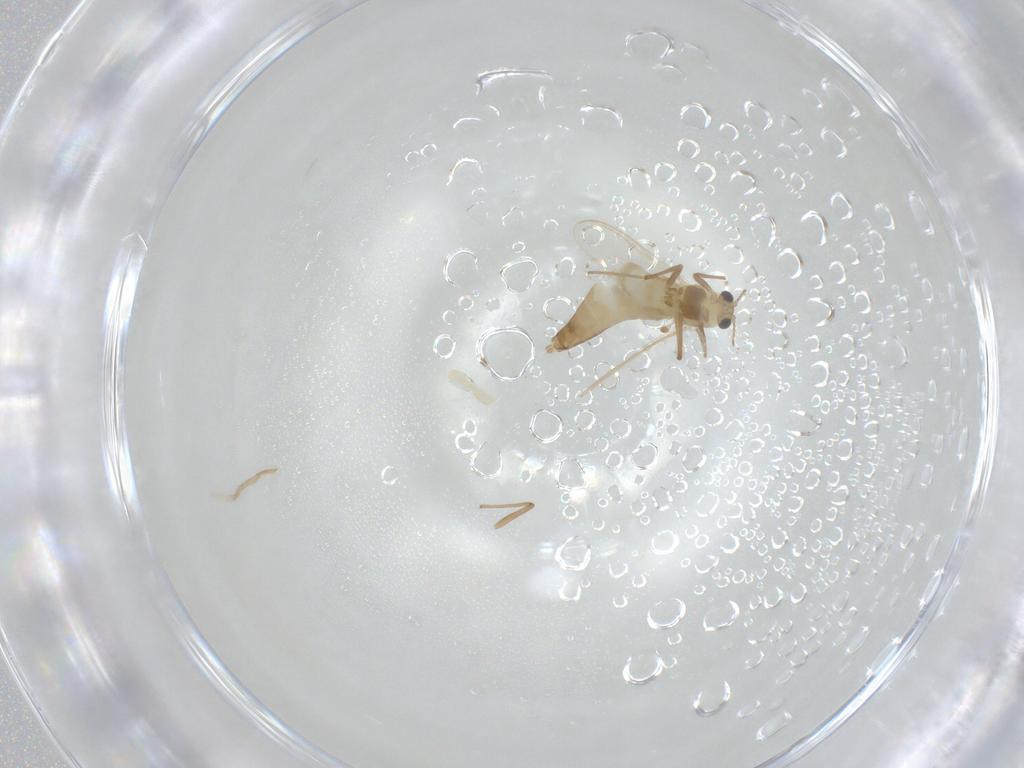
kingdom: Animalia
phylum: Arthropoda
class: Insecta
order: Diptera
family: Chironomidae
